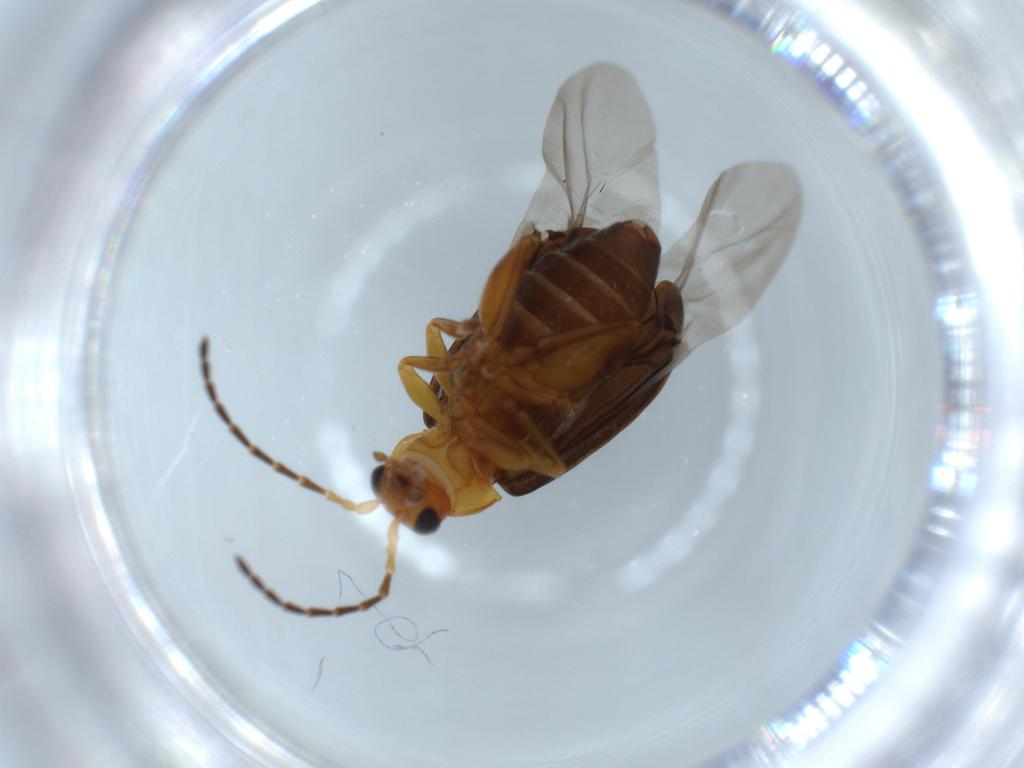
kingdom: Animalia
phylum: Arthropoda
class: Insecta
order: Coleoptera
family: Chrysomelidae
